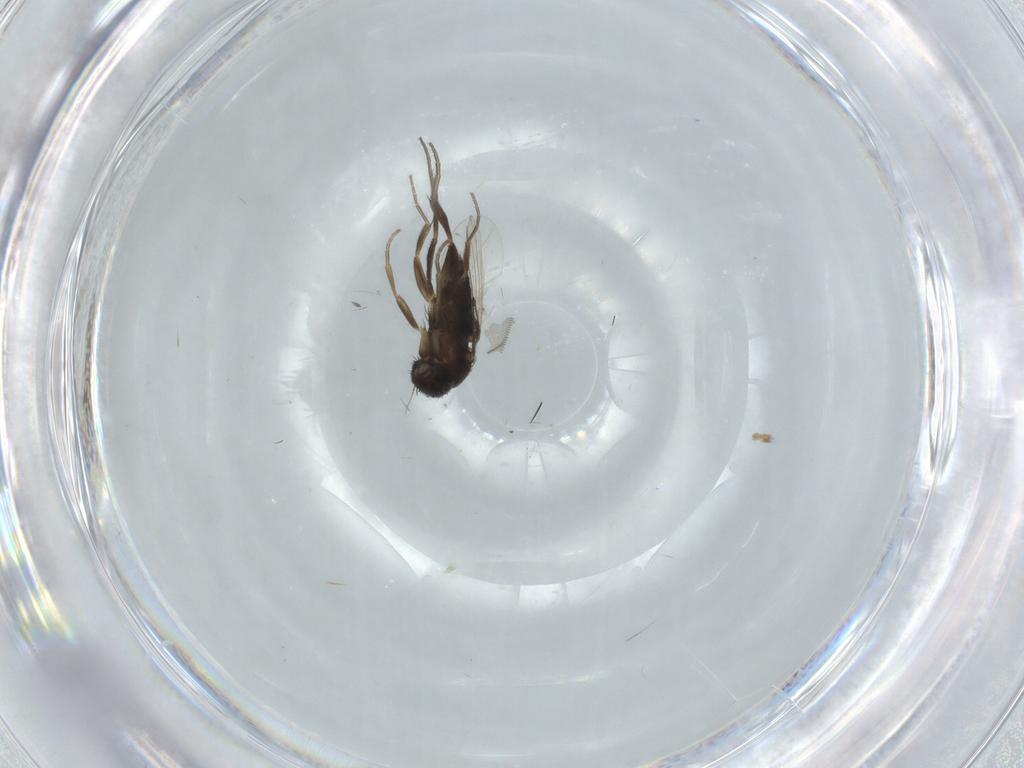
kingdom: Animalia
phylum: Arthropoda
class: Insecta
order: Diptera
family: Phoridae
